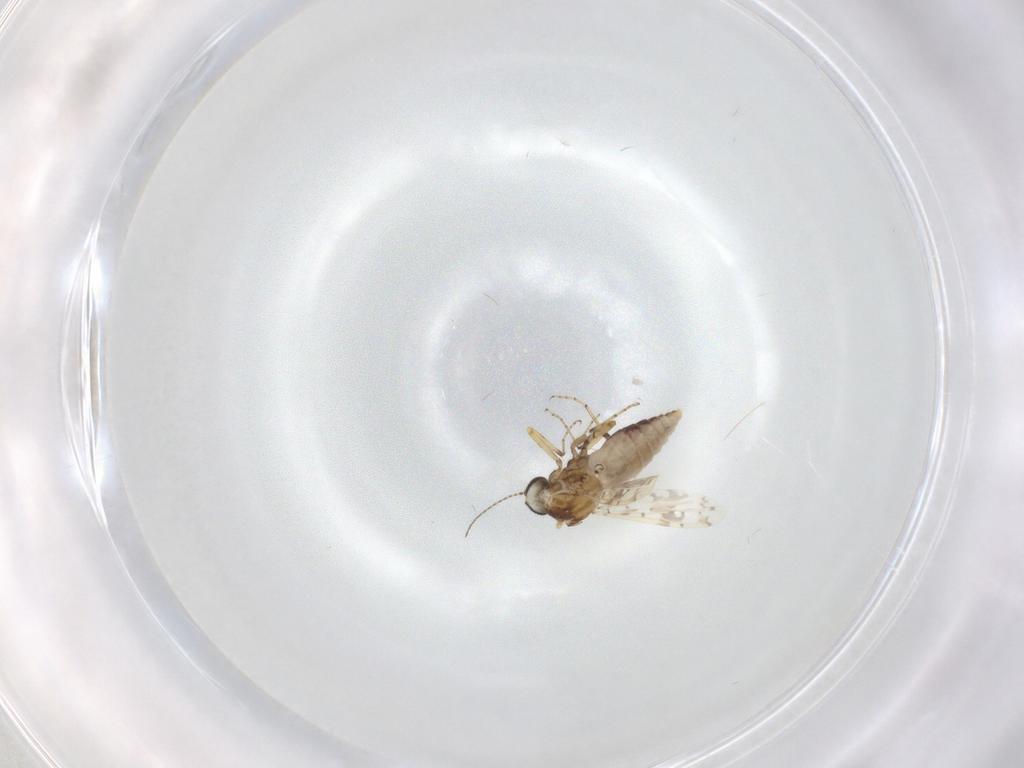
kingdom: Animalia
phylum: Arthropoda
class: Insecta
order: Diptera
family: Ceratopogonidae
